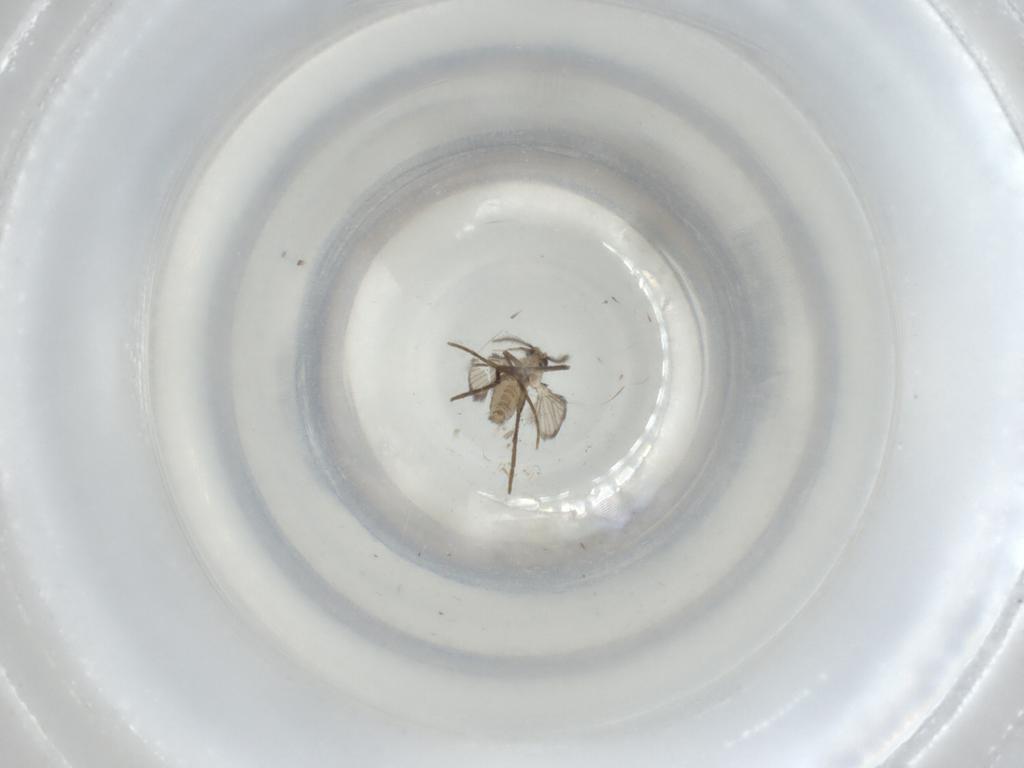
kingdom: Animalia
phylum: Arthropoda
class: Insecta
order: Diptera
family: Psychodidae
